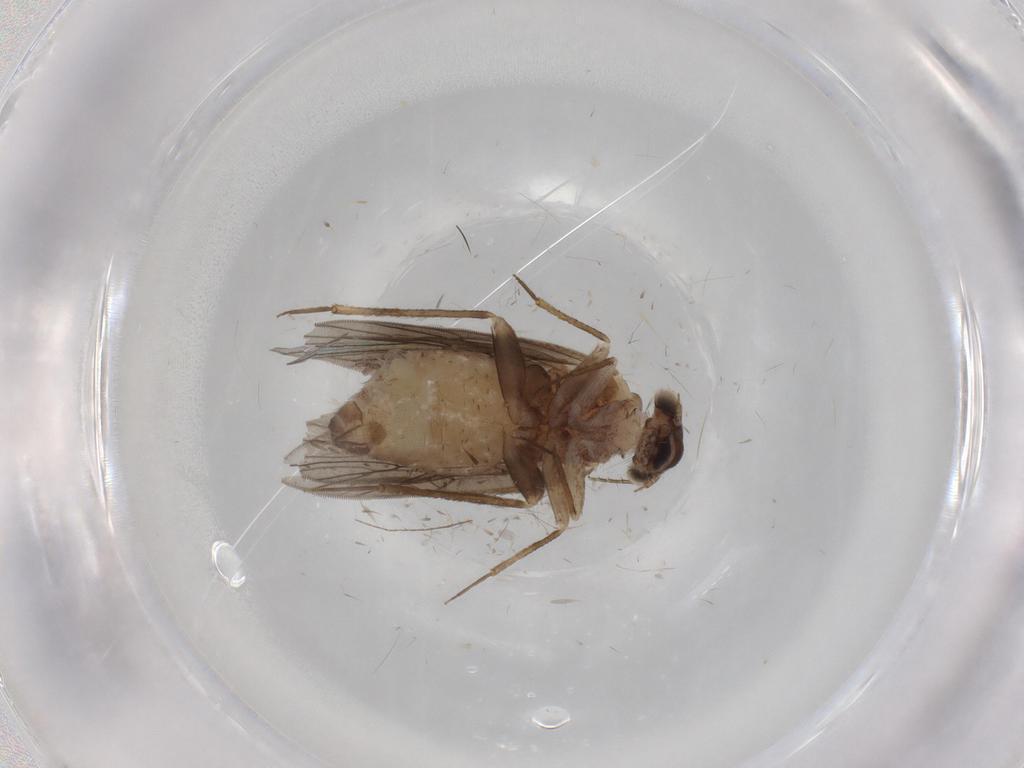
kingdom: Animalia
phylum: Arthropoda
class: Insecta
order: Psocodea
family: Lepidopsocidae
